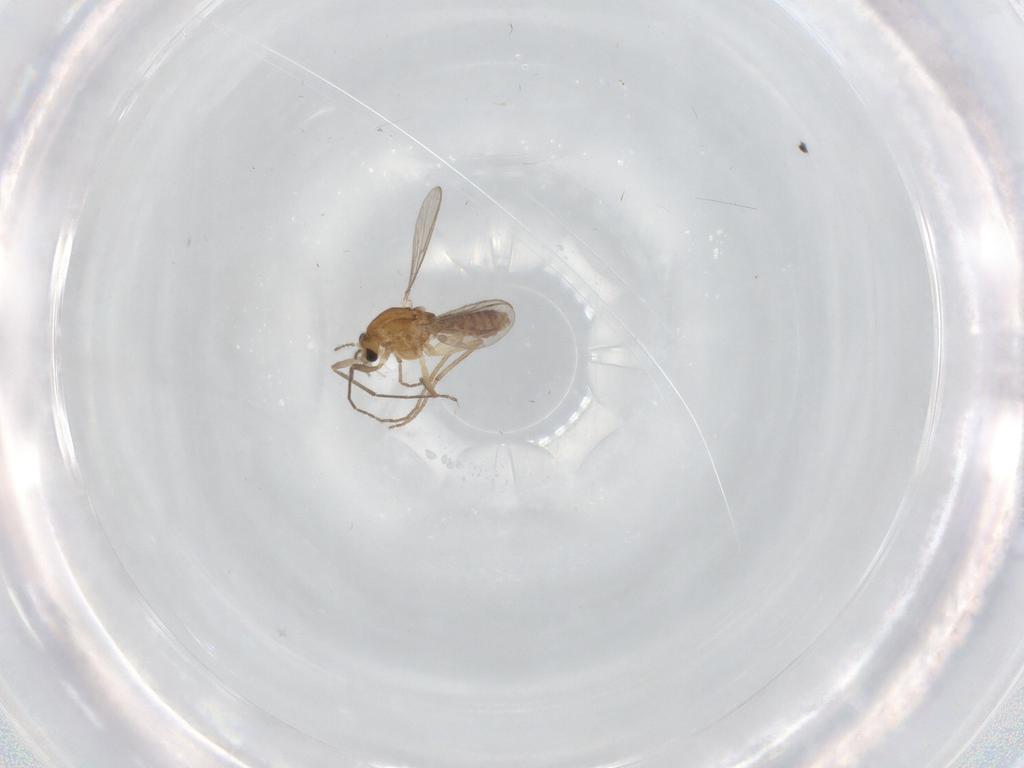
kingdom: Animalia
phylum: Arthropoda
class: Insecta
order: Diptera
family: Chironomidae
